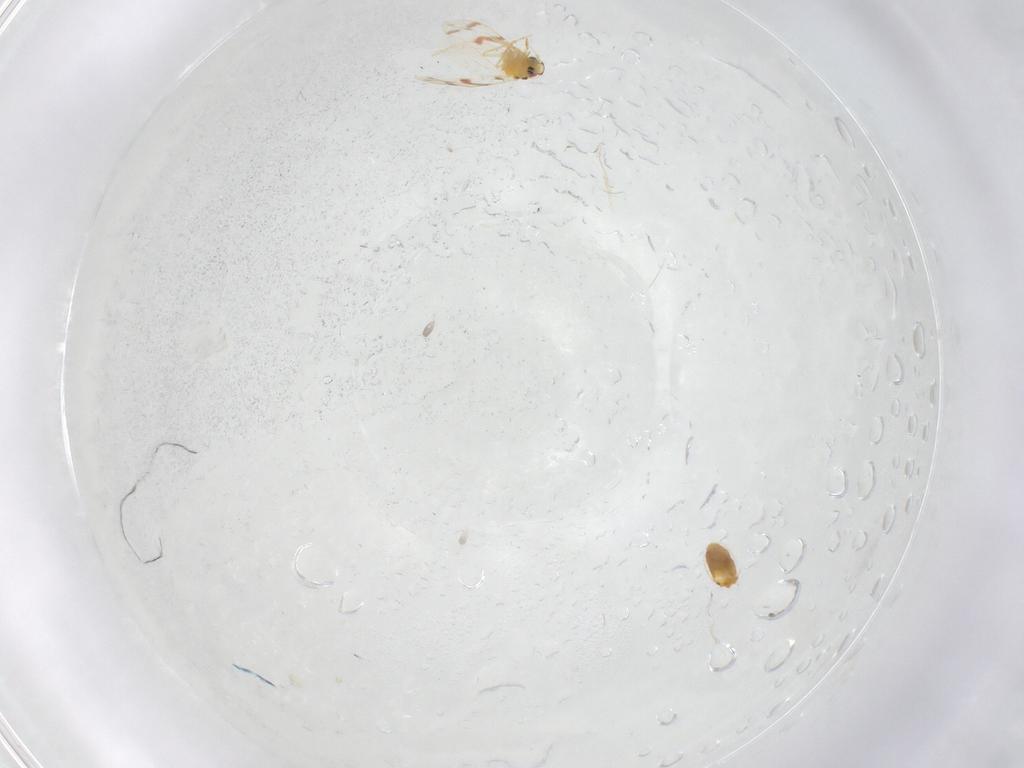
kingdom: Animalia
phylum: Arthropoda
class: Insecta
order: Hemiptera
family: Aleyrodidae
